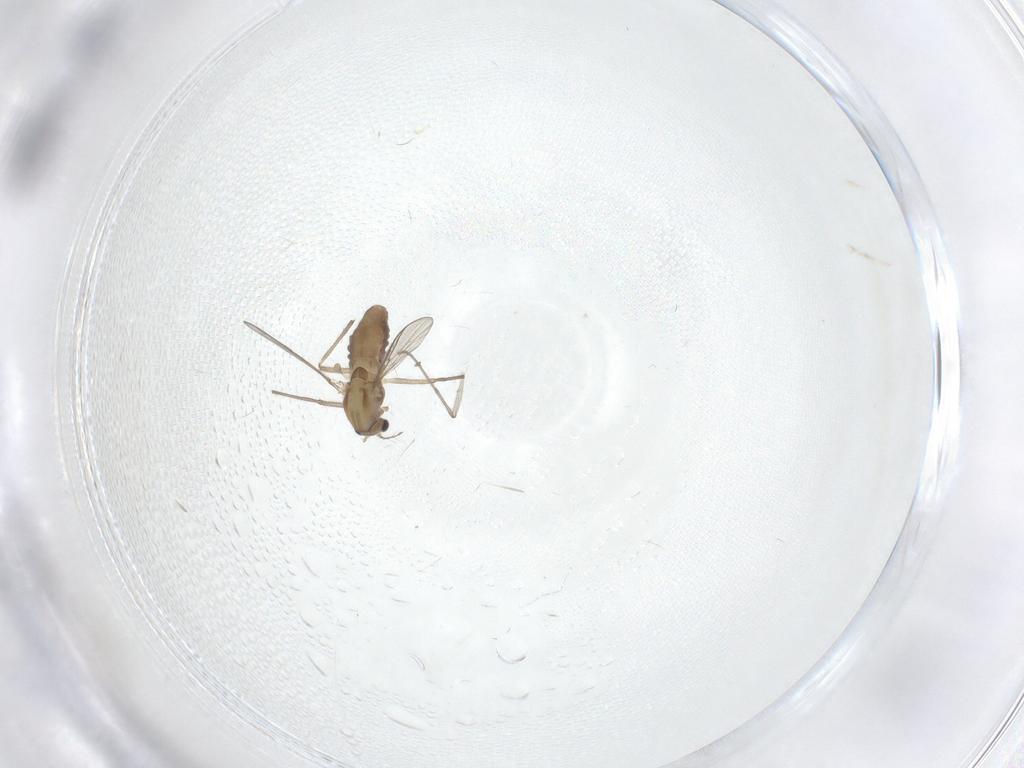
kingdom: Animalia
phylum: Arthropoda
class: Insecta
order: Diptera
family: Chironomidae
